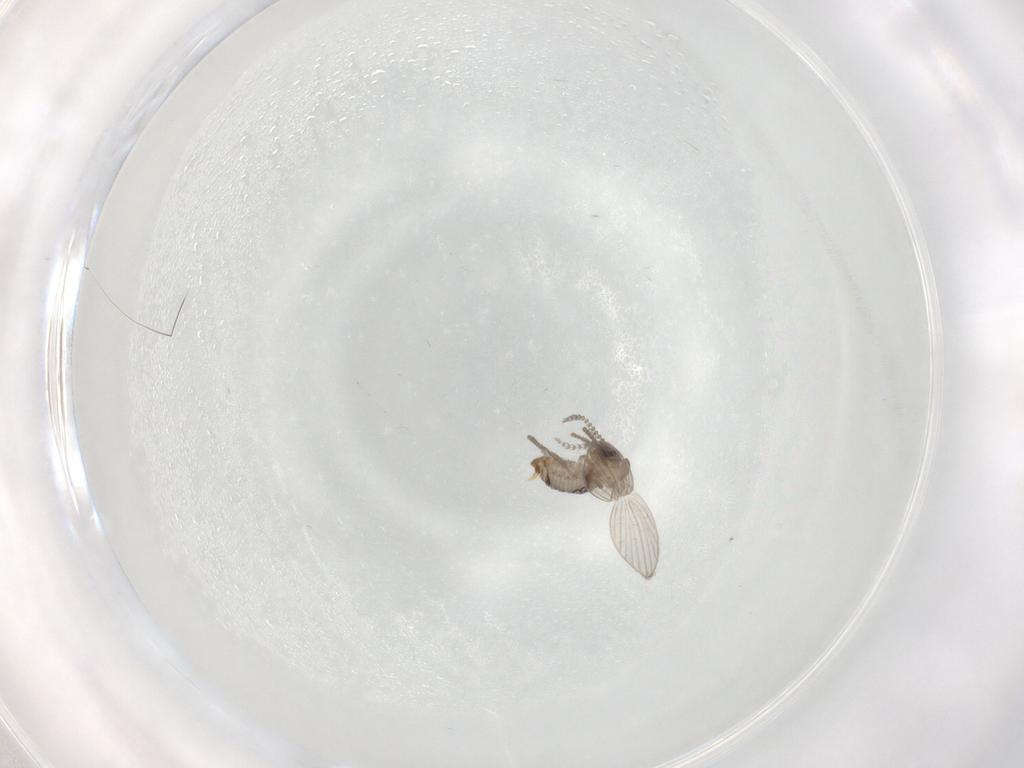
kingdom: Animalia
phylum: Arthropoda
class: Insecta
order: Diptera
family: Psychodidae
